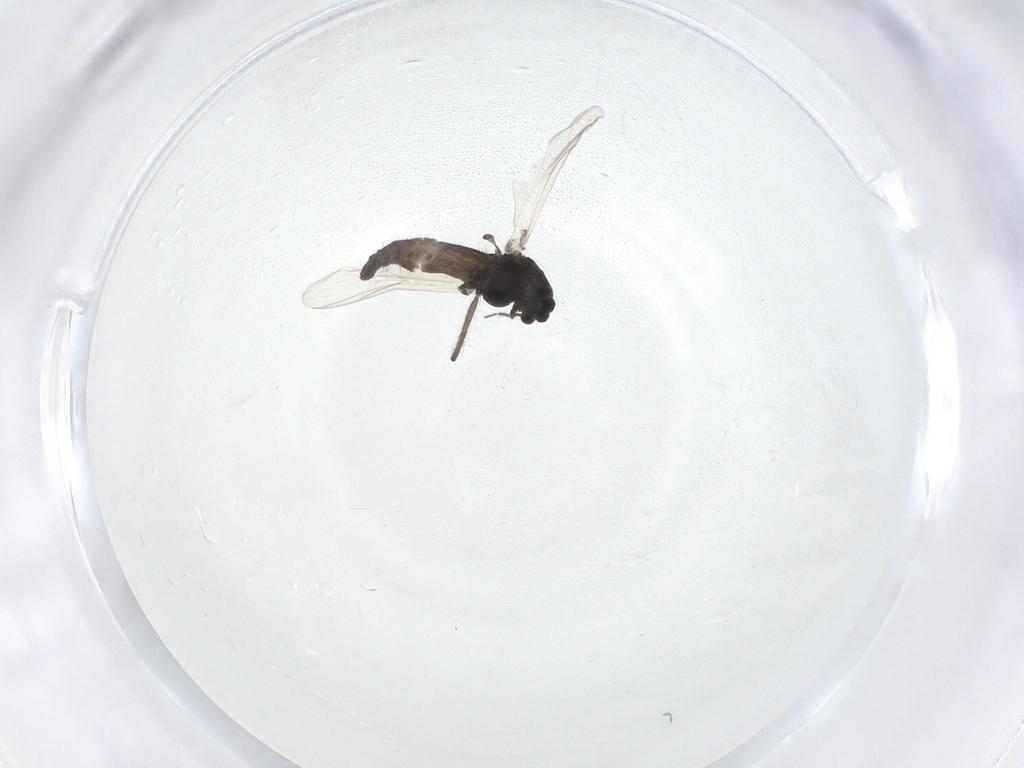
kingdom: Animalia
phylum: Arthropoda
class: Insecta
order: Diptera
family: Chironomidae
